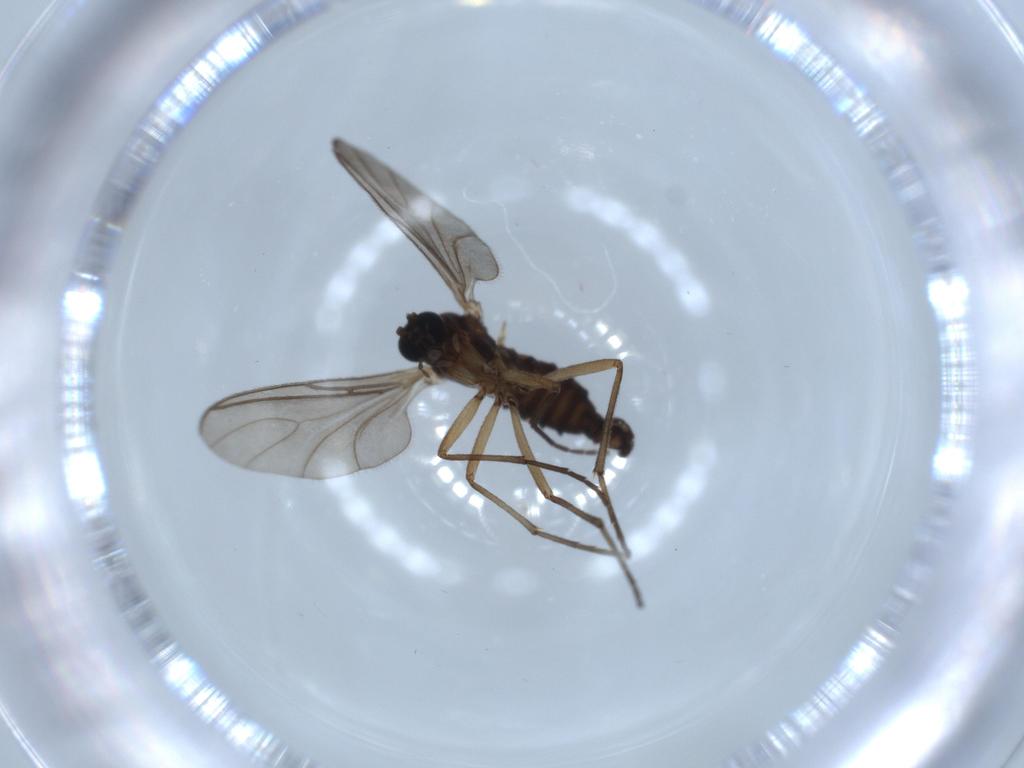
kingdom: Animalia
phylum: Arthropoda
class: Insecta
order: Diptera
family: Sciaridae
